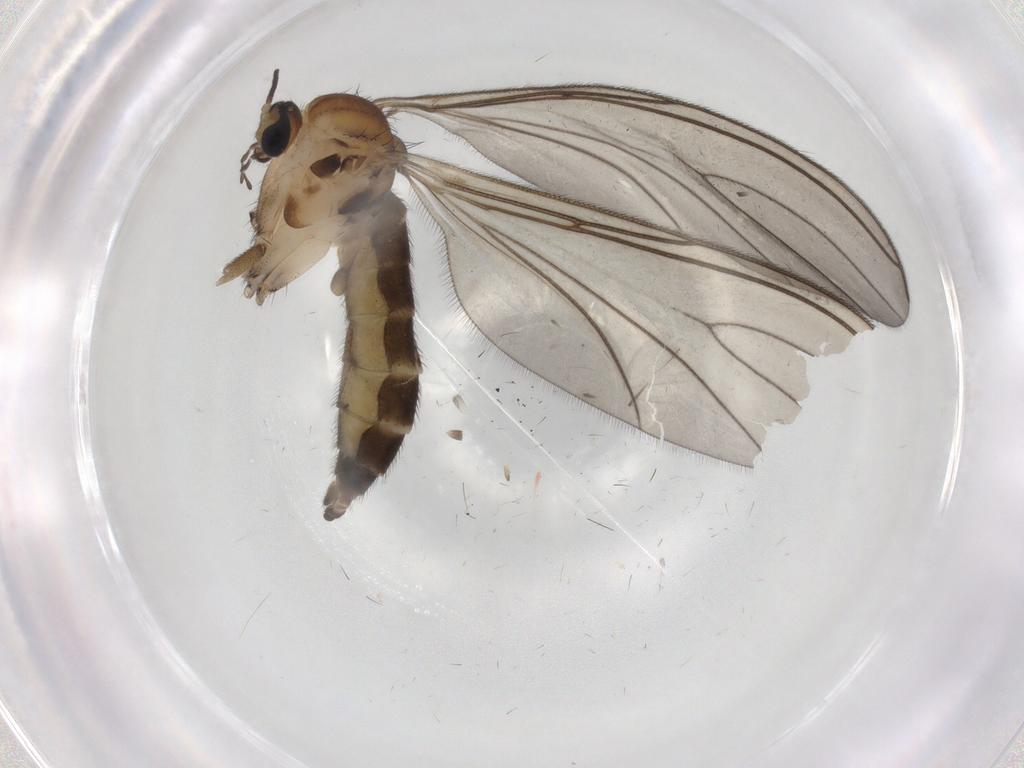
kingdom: Animalia
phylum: Arthropoda
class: Insecta
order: Diptera
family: Sciaridae
